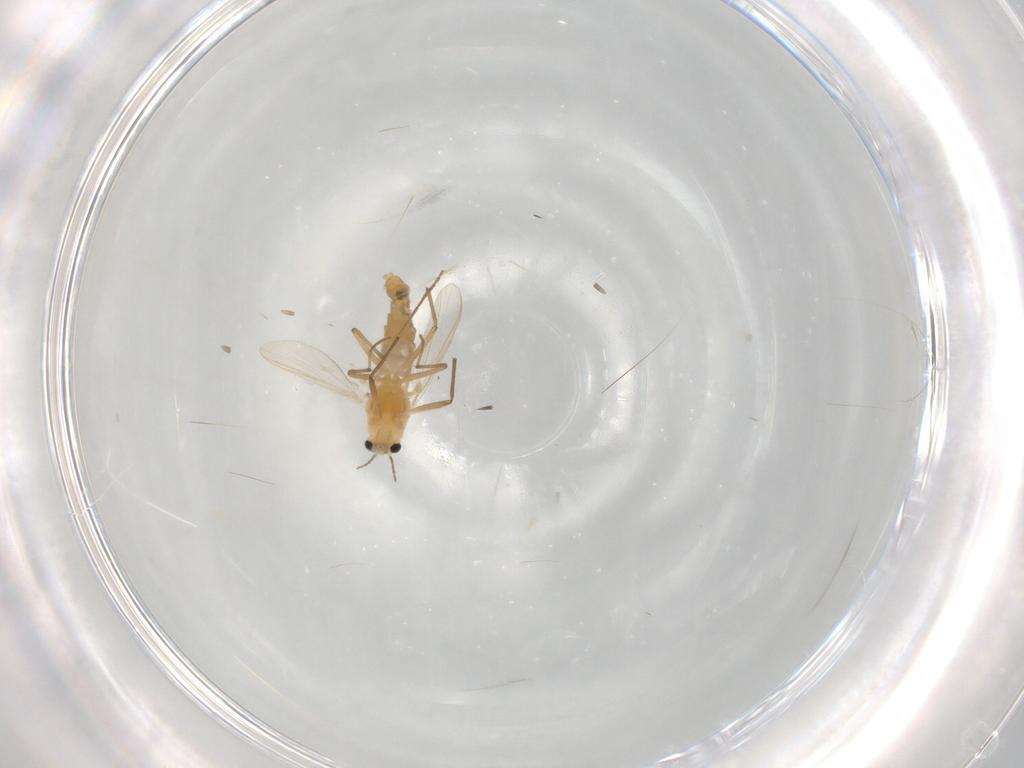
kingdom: Animalia
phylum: Arthropoda
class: Insecta
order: Diptera
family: Chironomidae
